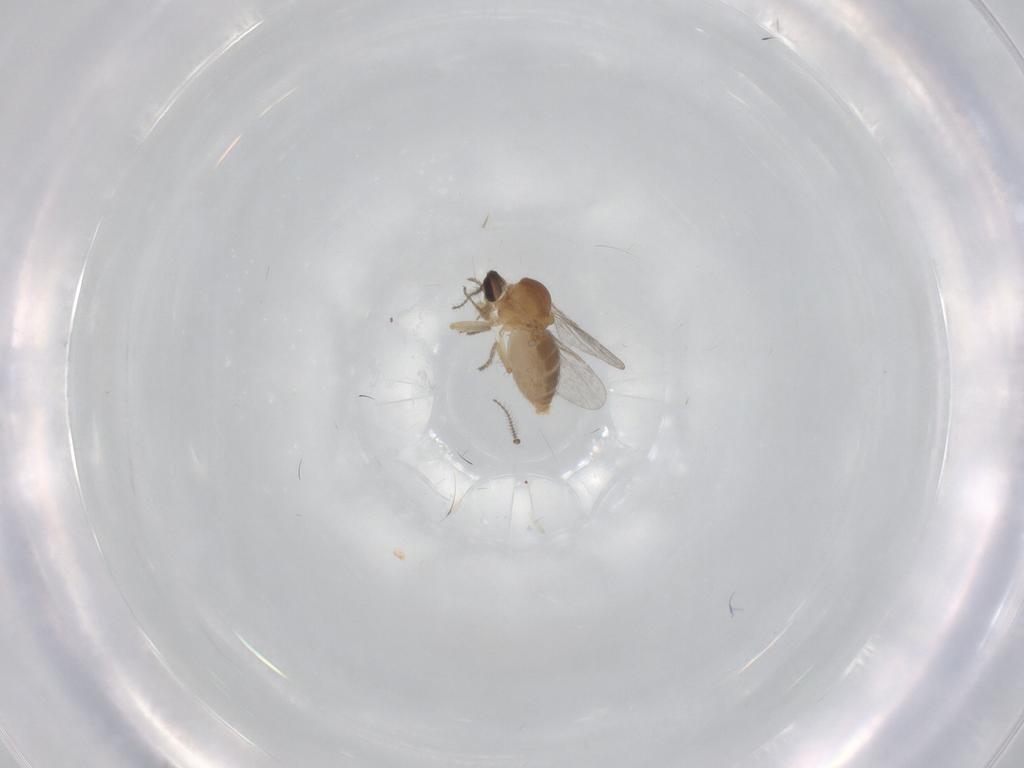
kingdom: Animalia
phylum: Arthropoda
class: Insecta
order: Diptera
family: Ceratopogonidae
